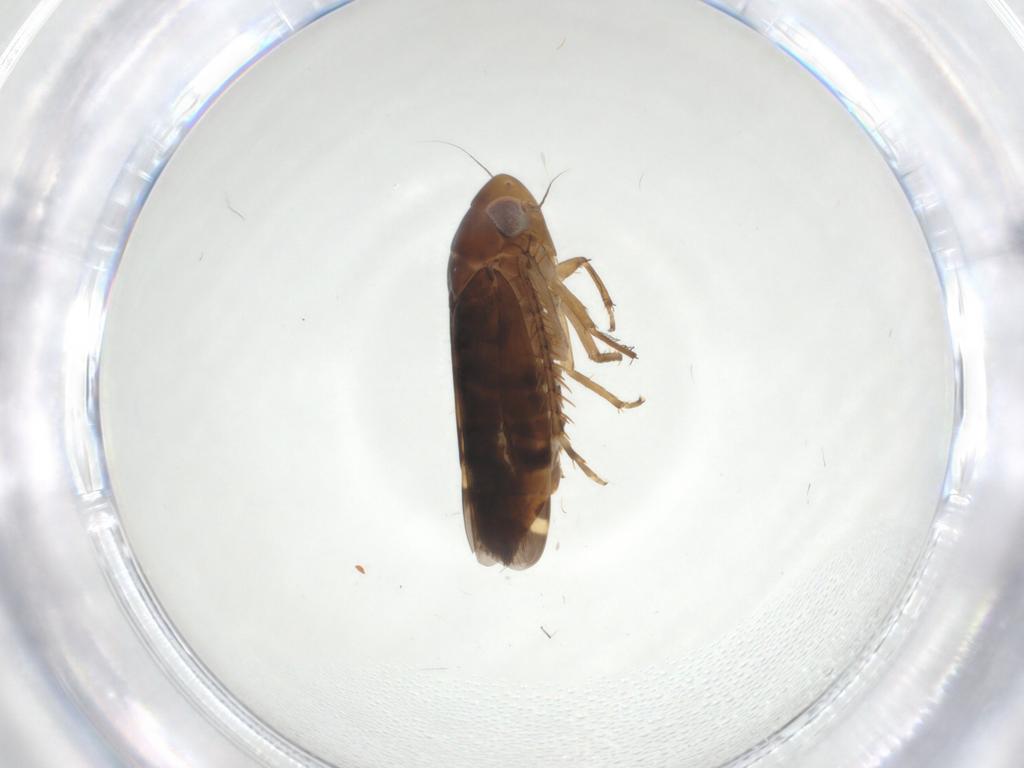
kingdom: Animalia
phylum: Arthropoda
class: Insecta
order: Hemiptera
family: Cicadellidae
